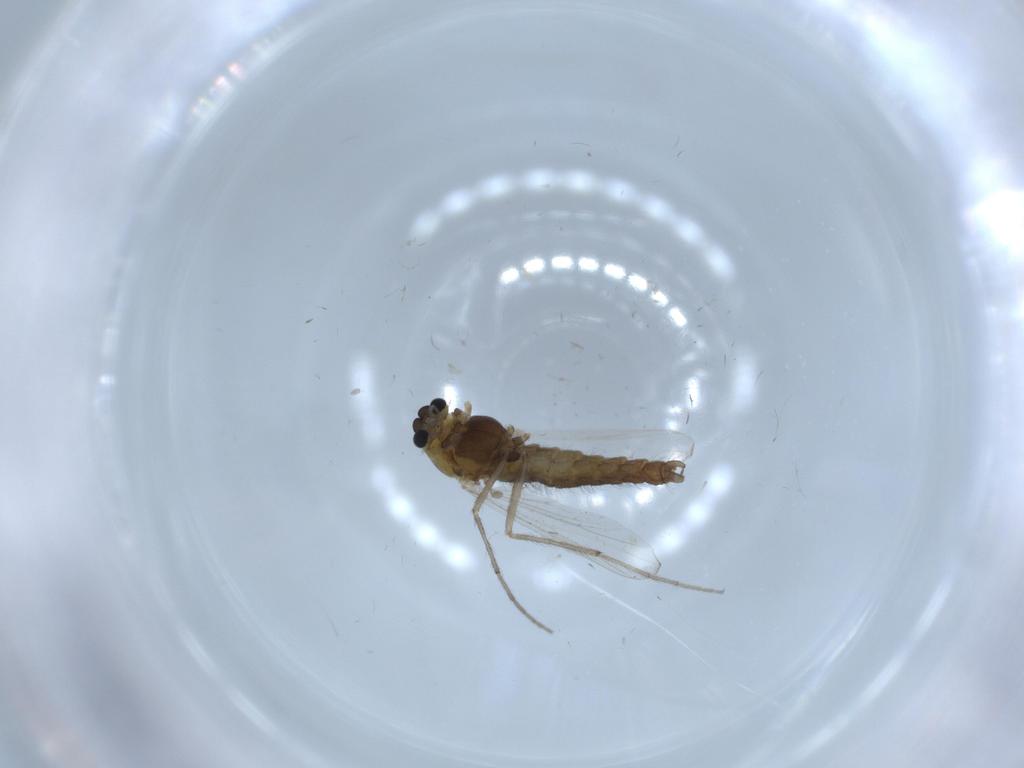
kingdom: Animalia
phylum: Arthropoda
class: Insecta
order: Diptera
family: Chironomidae
